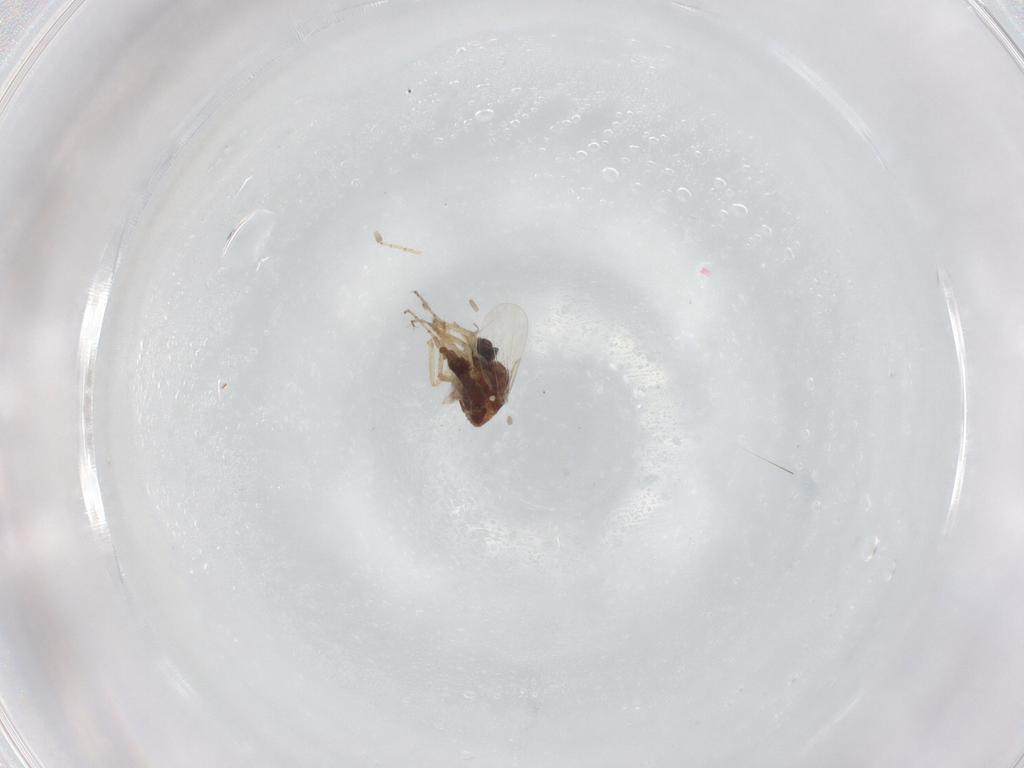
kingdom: Animalia
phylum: Arthropoda
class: Insecta
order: Diptera
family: Ceratopogonidae
